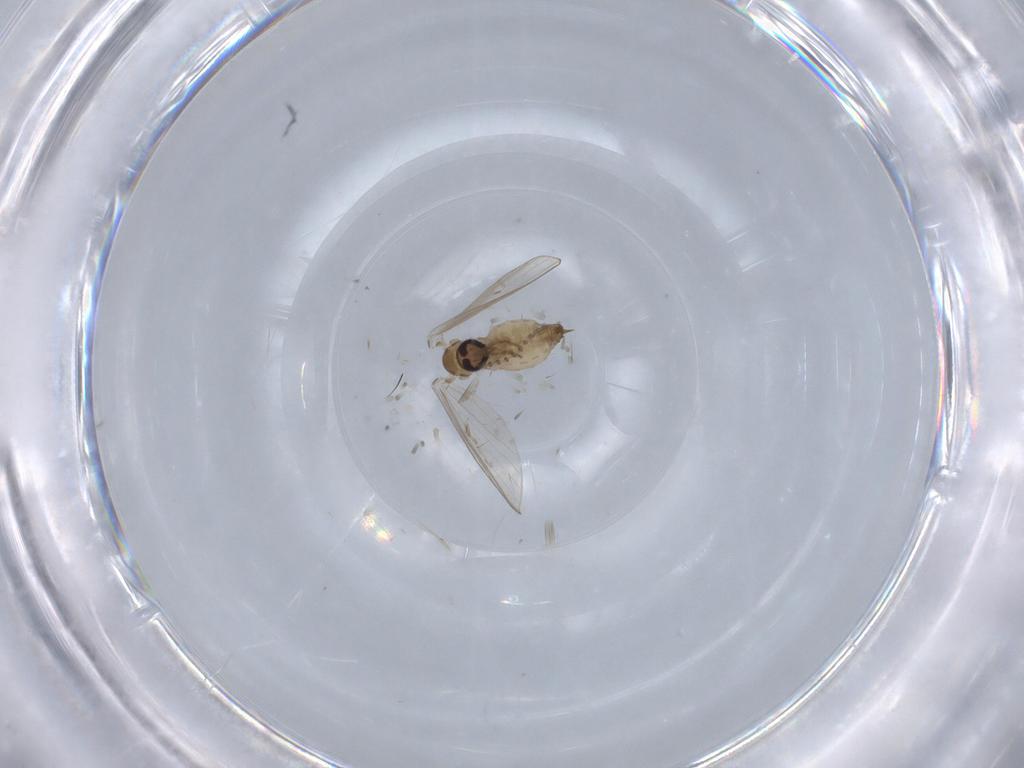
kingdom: Animalia
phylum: Arthropoda
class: Insecta
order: Diptera
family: Psychodidae
